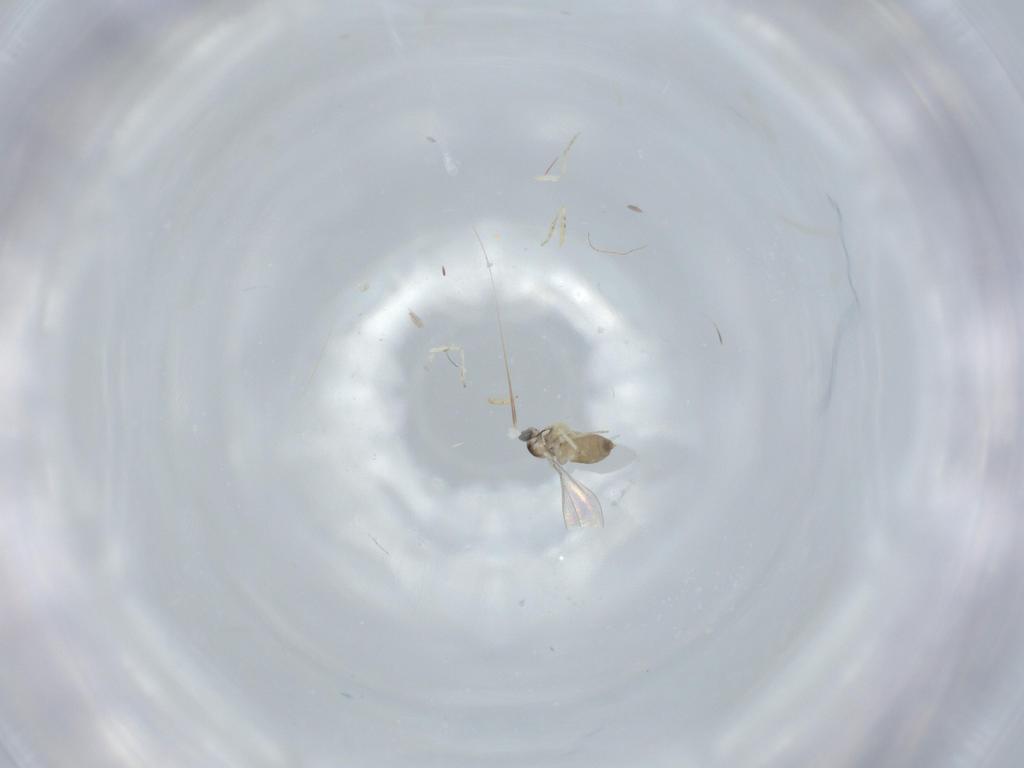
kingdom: Animalia
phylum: Arthropoda
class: Insecta
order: Diptera
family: Cecidomyiidae
